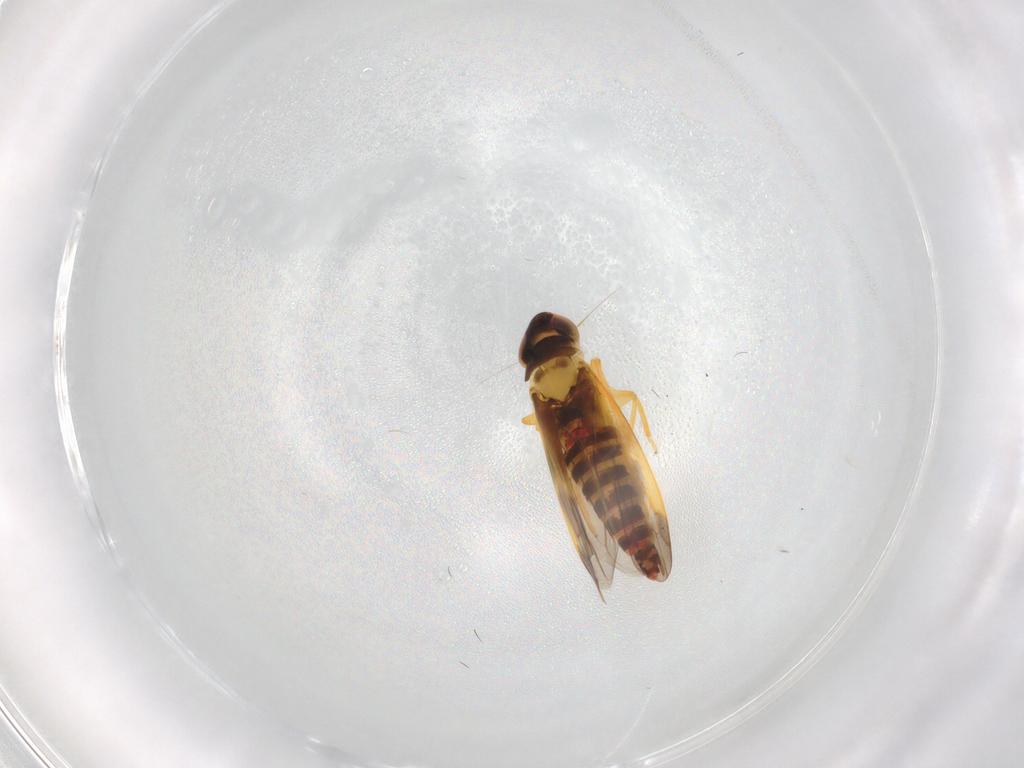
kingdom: Animalia
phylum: Arthropoda
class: Insecta
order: Hemiptera
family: Cicadellidae
